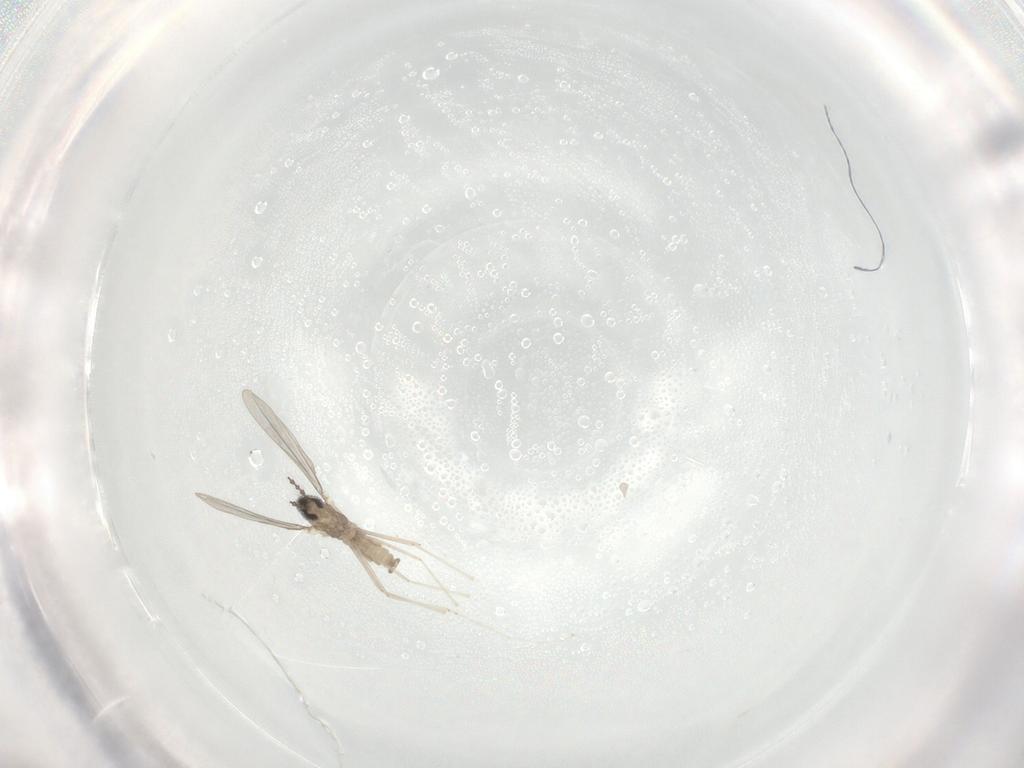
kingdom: Animalia
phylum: Arthropoda
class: Insecta
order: Diptera
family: Cecidomyiidae
